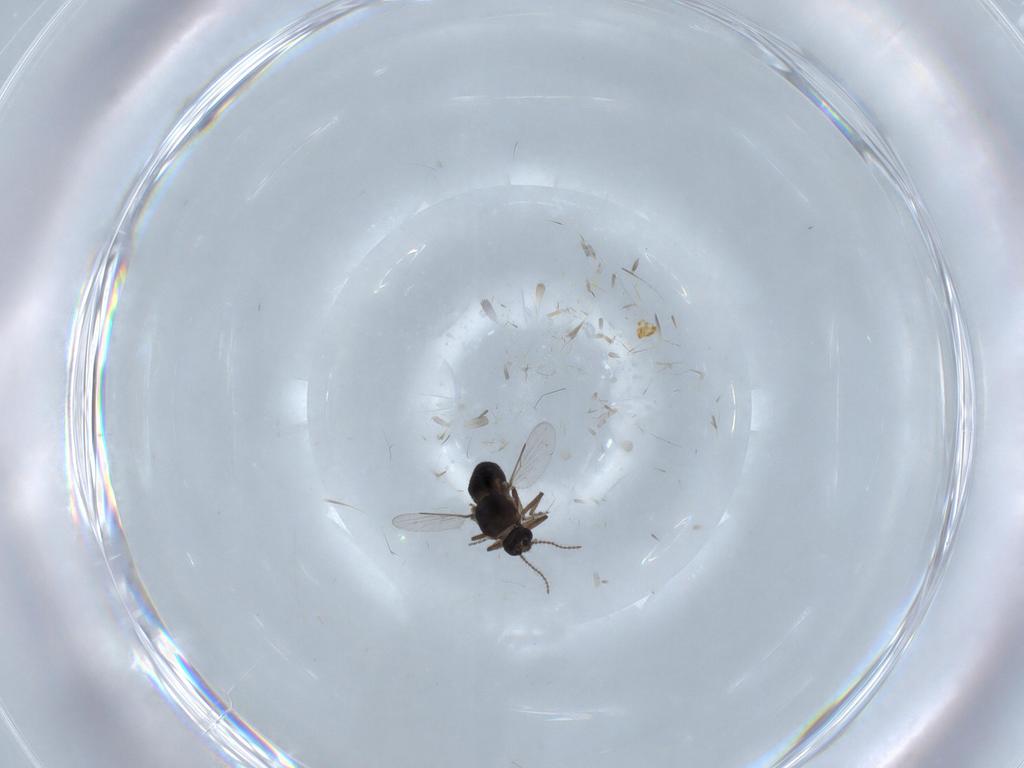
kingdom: Animalia
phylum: Arthropoda
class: Insecta
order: Diptera
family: Ceratopogonidae
